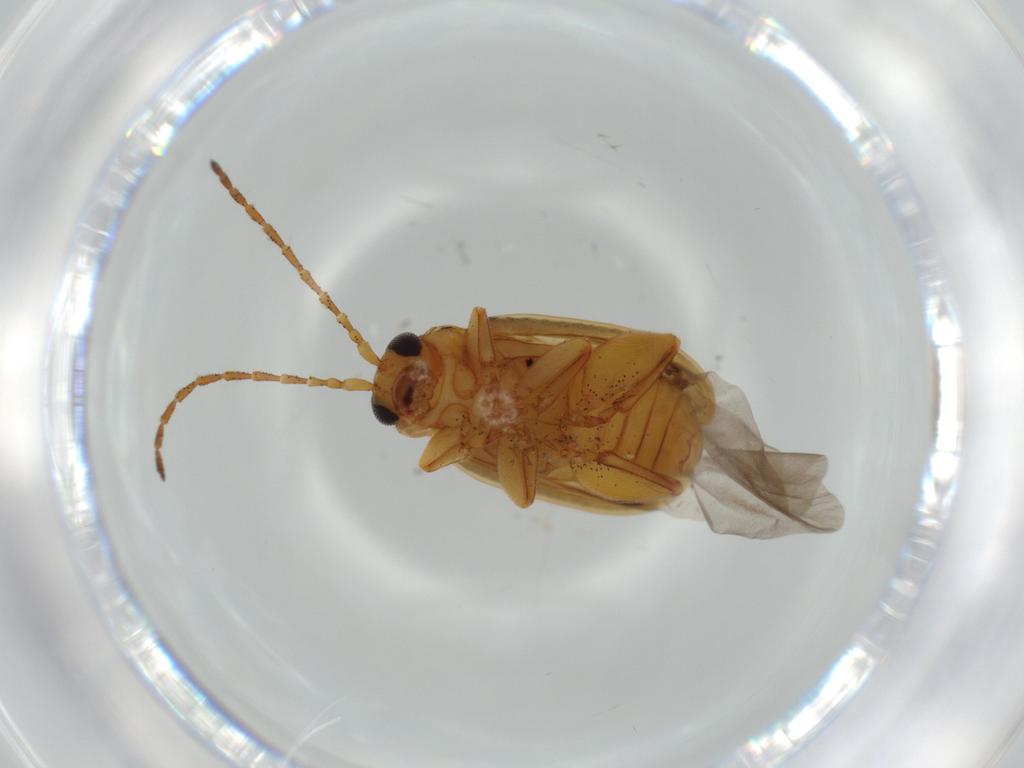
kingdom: Animalia
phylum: Arthropoda
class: Insecta
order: Coleoptera
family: Chrysomelidae
